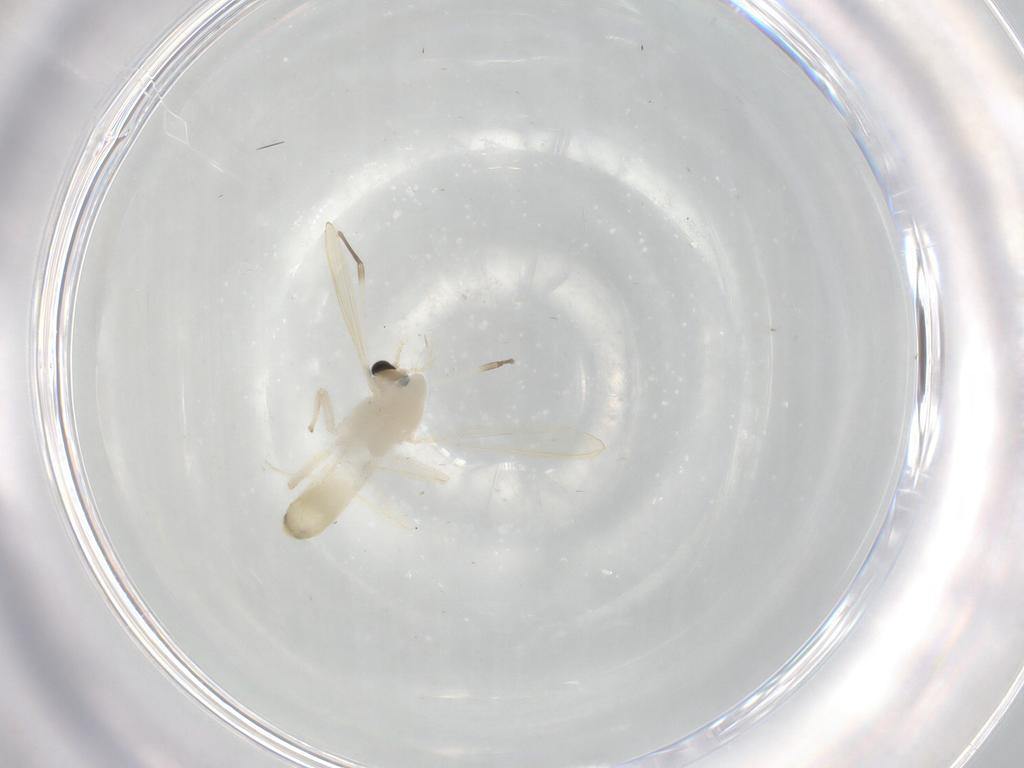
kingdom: Animalia
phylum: Arthropoda
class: Insecta
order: Diptera
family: Chironomidae
